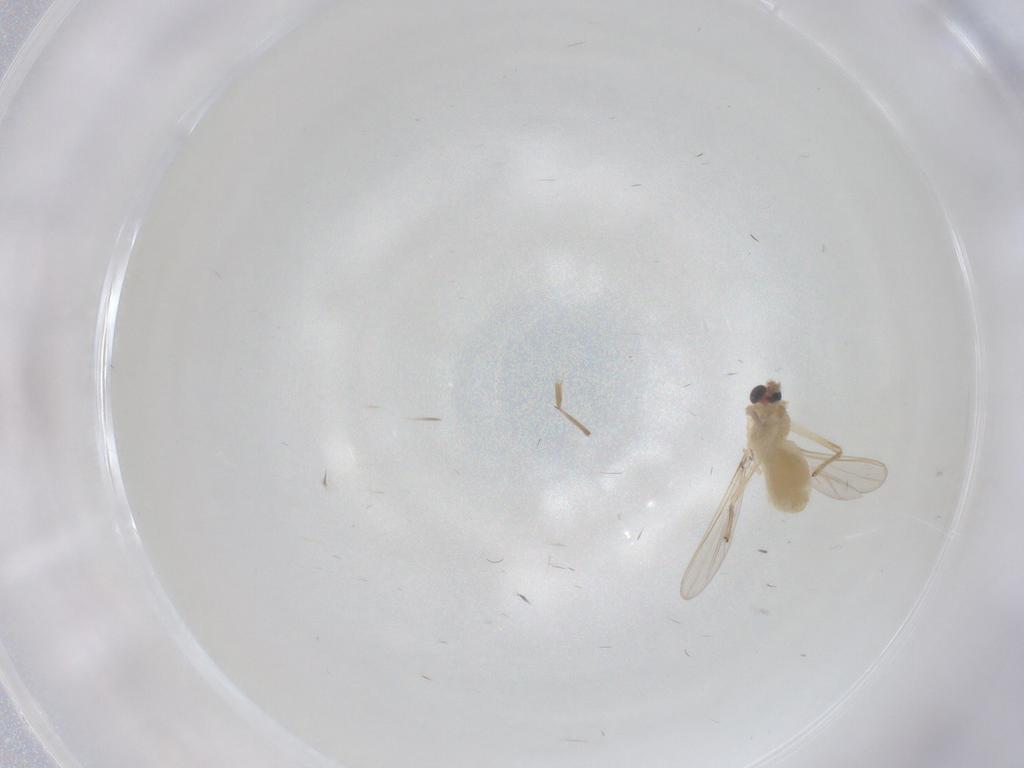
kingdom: Animalia
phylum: Arthropoda
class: Insecta
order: Diptera
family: Chironomidae
